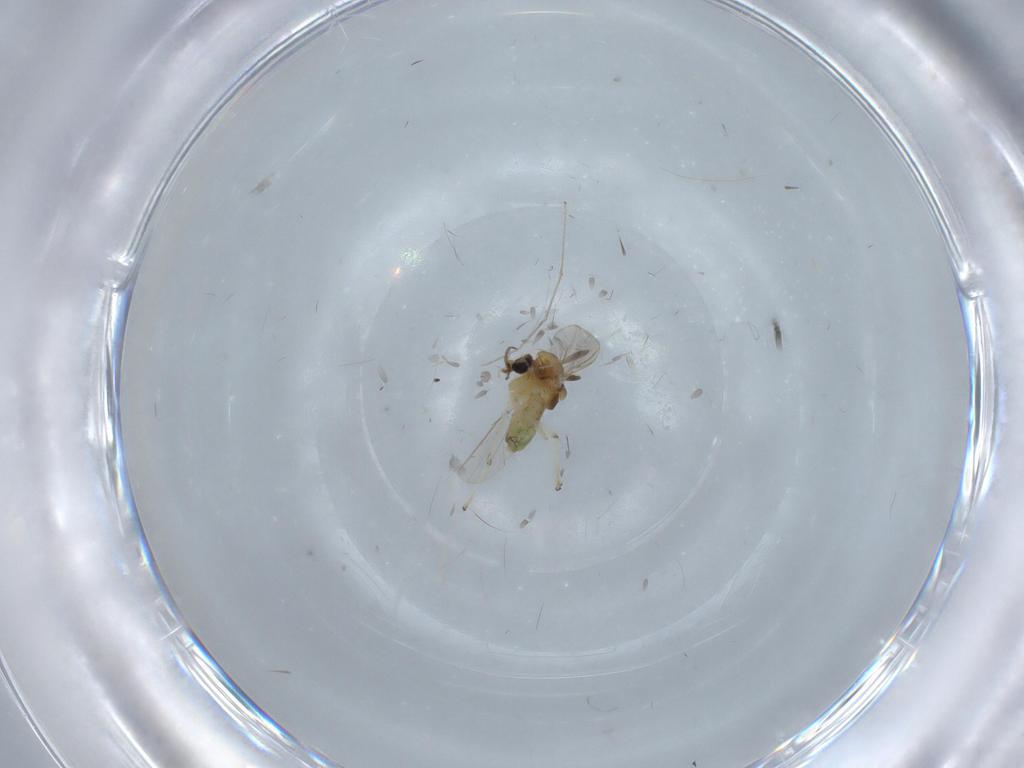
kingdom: Animalia
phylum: Arthropoda
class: Insecta
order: Diptera
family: Chironomidae
